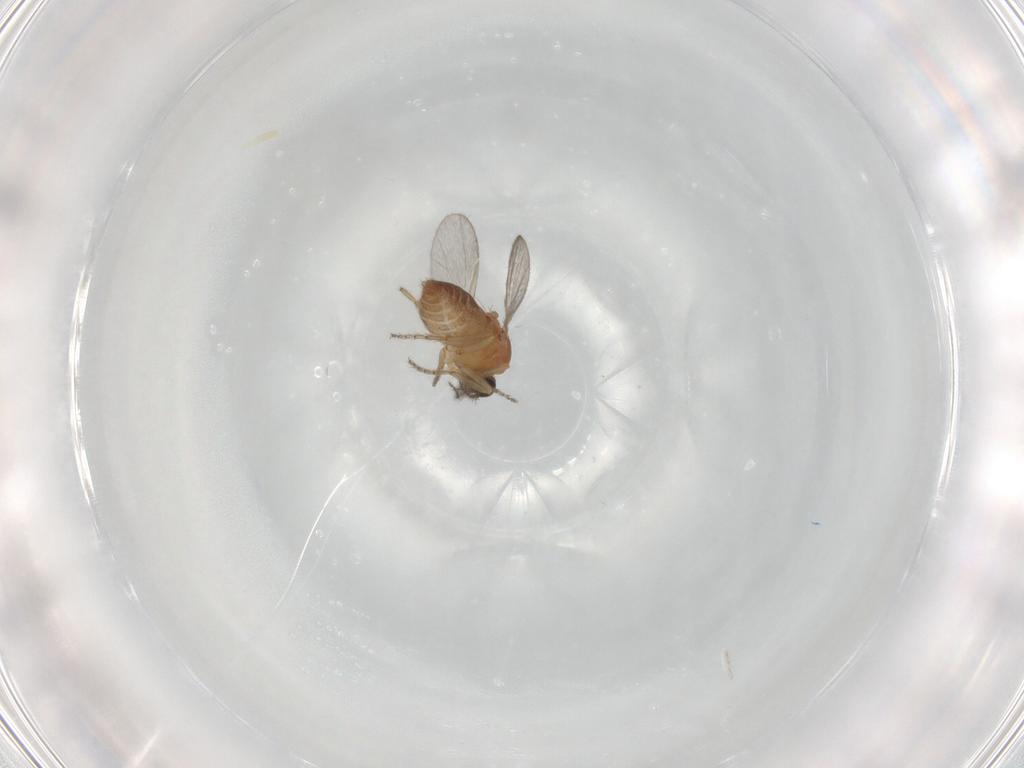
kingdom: Animalia
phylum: Arthropoda
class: Insecta
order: Diptera
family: Ceratopogonidae
